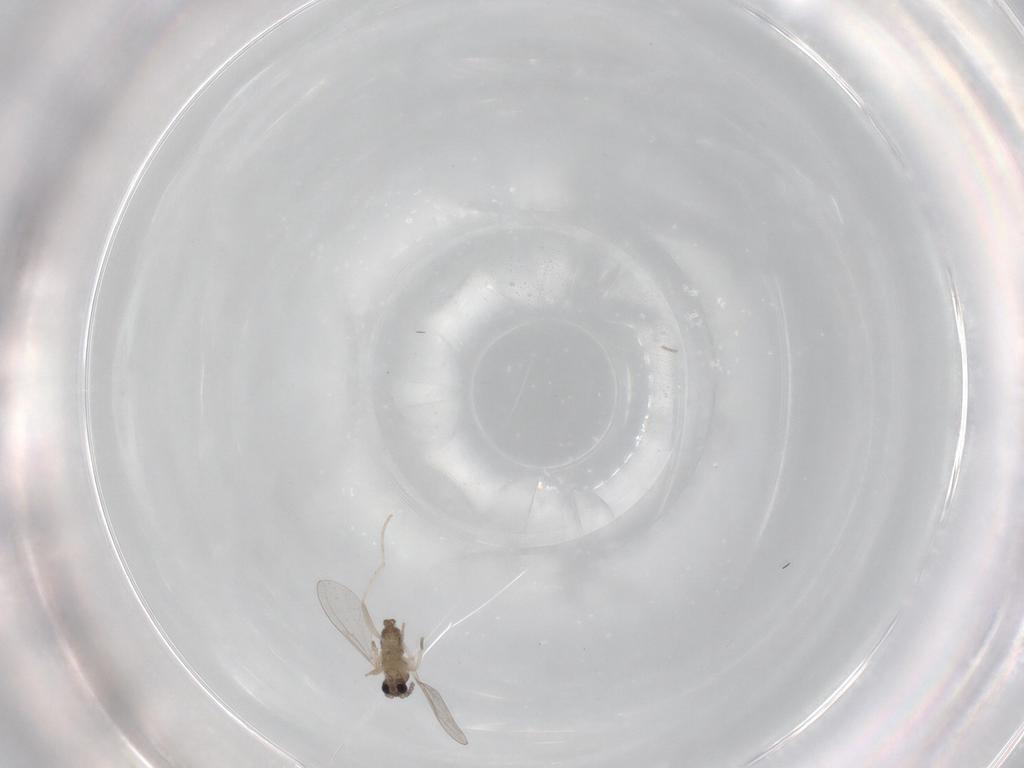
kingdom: Animalia
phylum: Arthropoda
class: Insecta
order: Diptera
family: Cecidomyiidae
